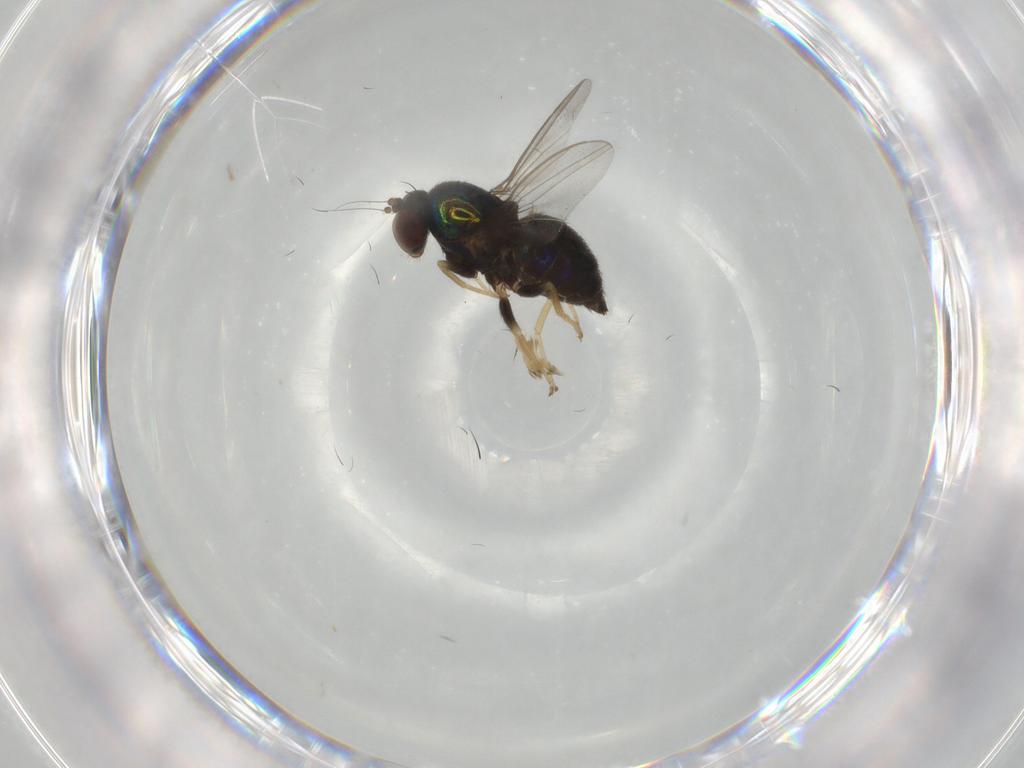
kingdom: Animalia
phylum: Arthropoda
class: Insecta
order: Diptera
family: Dolichopodidae
